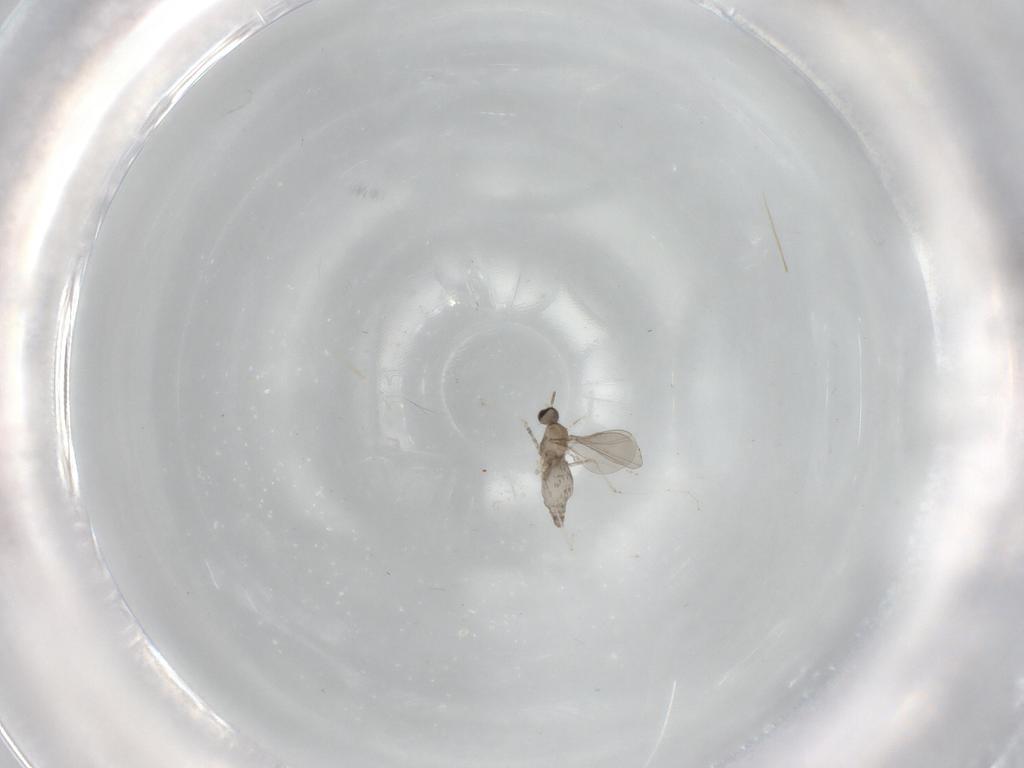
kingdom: Animalia
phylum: Arthropoda
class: Insecta
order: Diptera
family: Cecidomyiidae
